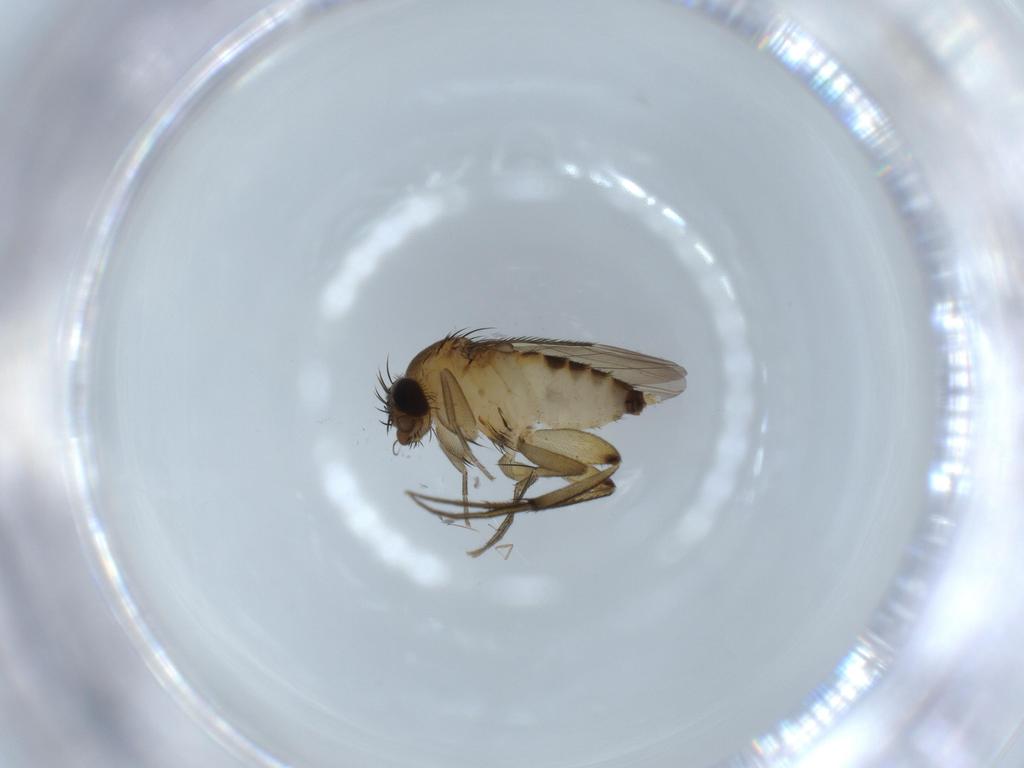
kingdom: Animalia
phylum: Arthropoda
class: Insecta
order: Diptera
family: Phoridae
